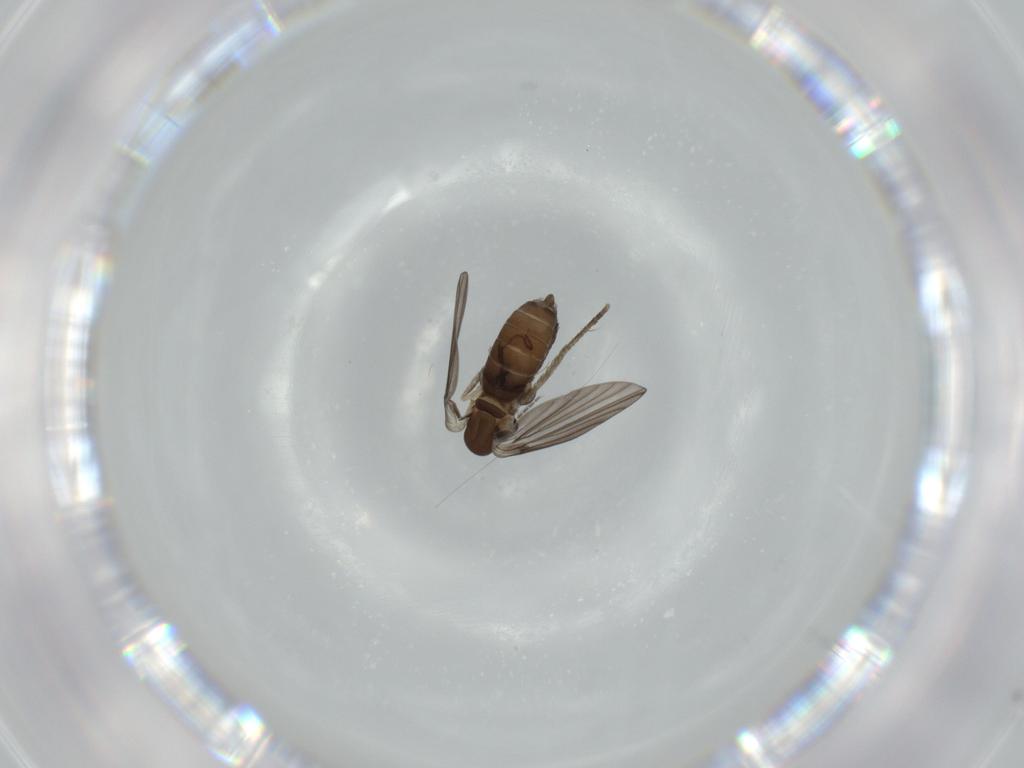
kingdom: Animalia
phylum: Arthropoda
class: Insecta
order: Diptera
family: Psychodidae
